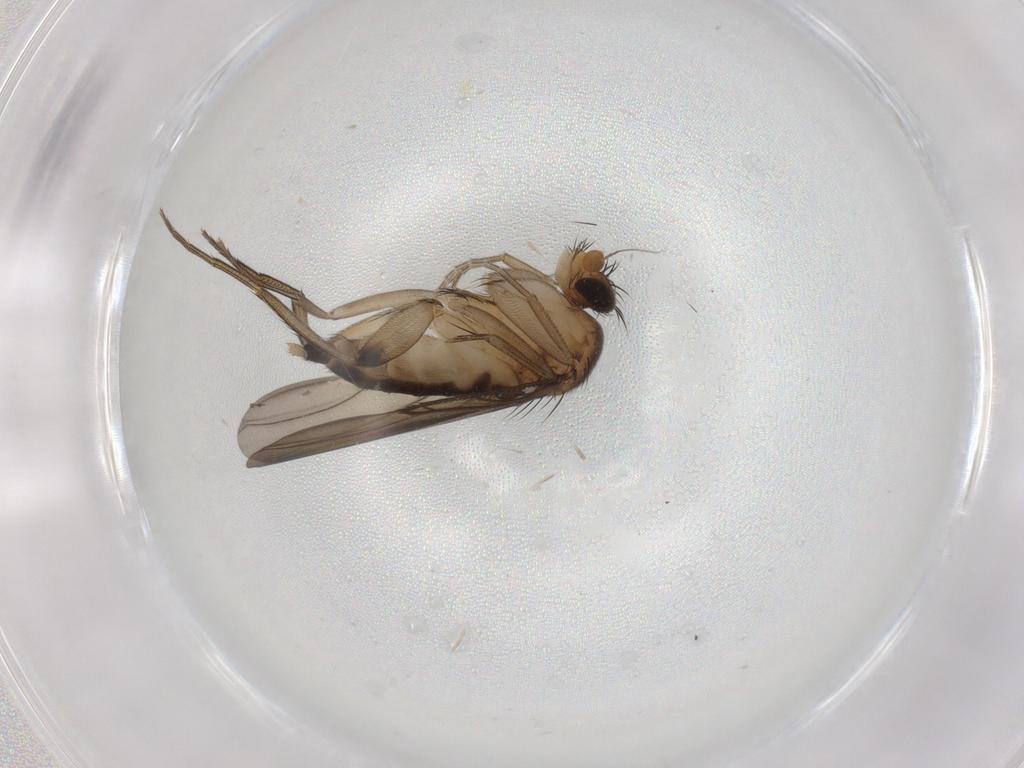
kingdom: Animalia
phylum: Arthropoda
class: Insecta
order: Diptera
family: Phoridae
